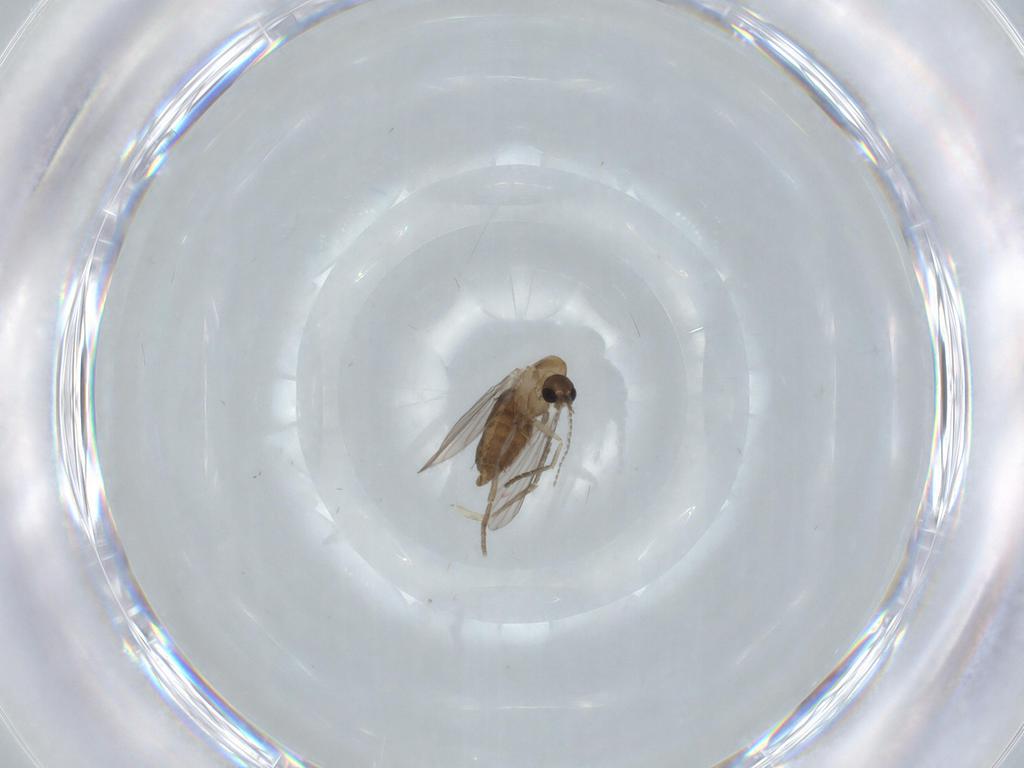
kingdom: Animalia
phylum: Arthropoda
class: Insecta
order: Diptera
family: Psychodidae
